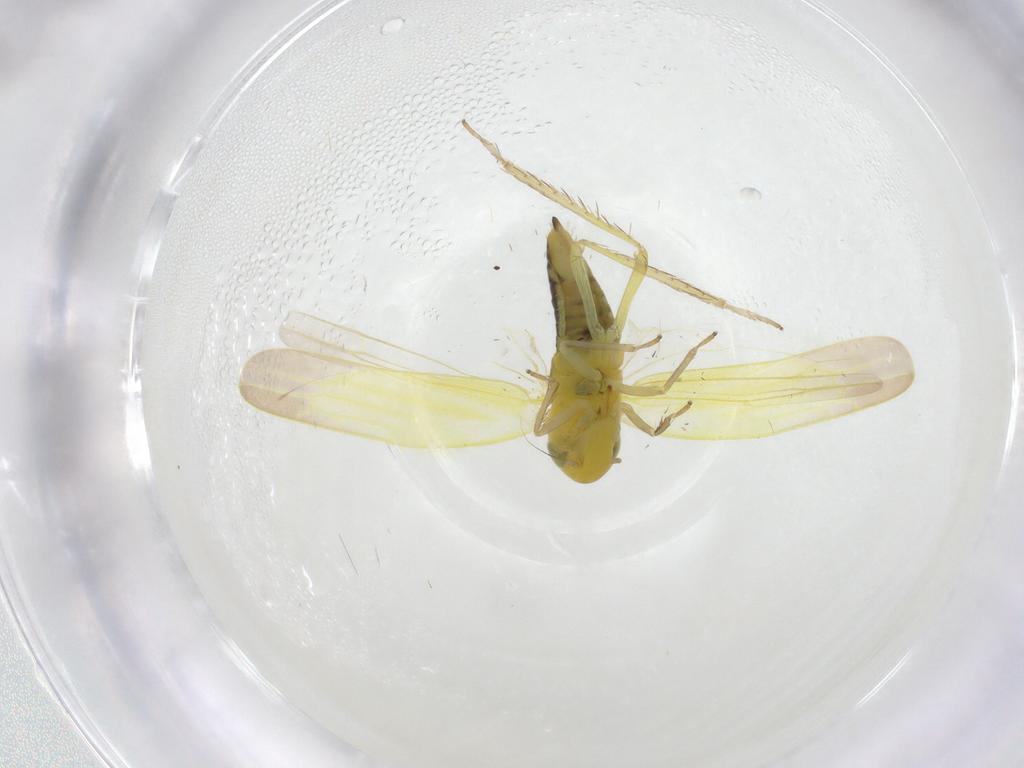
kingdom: Animalia
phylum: Arthropoda
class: Insecta
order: Hemiptera
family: Cicadellidae
